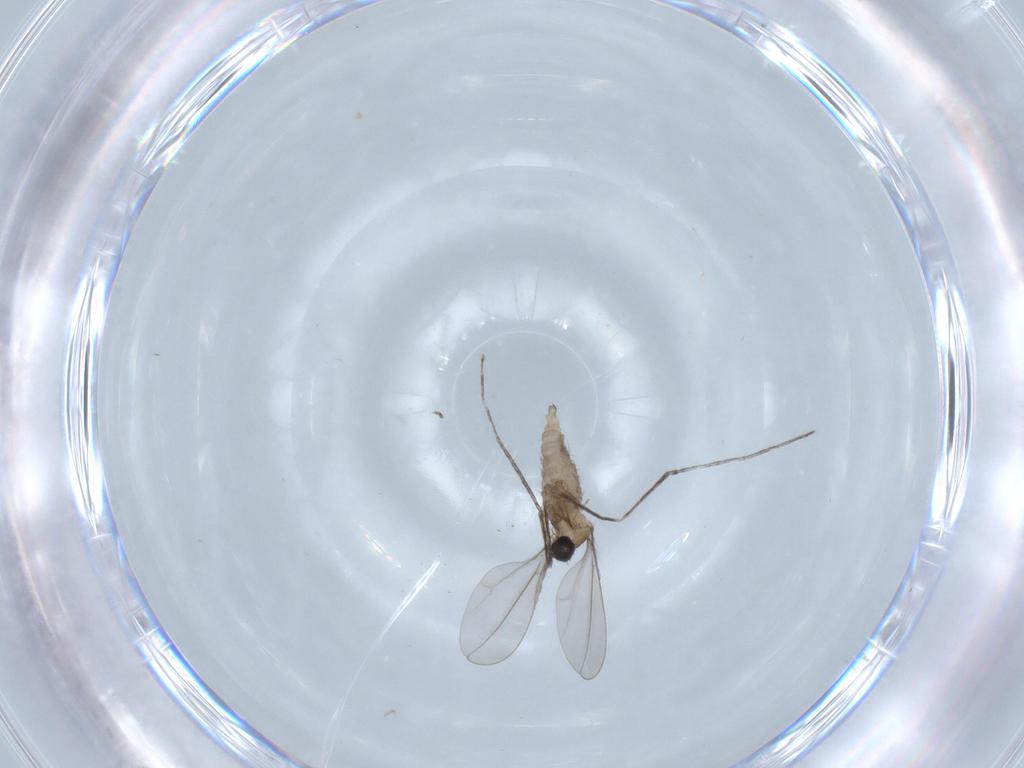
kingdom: Animalia
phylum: Arthropoda
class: Insecta
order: Diptera
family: Cecidomyiidae
